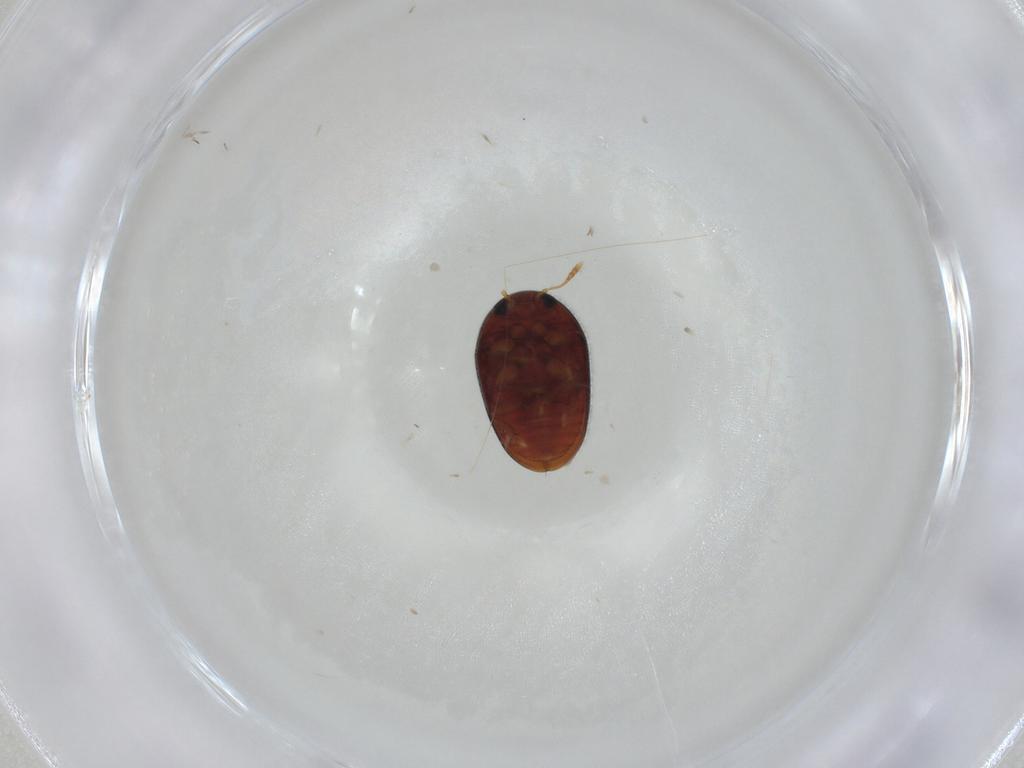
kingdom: Animalia
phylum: Arthropoda
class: Insecta
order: Coleoptera
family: Phalacridae
